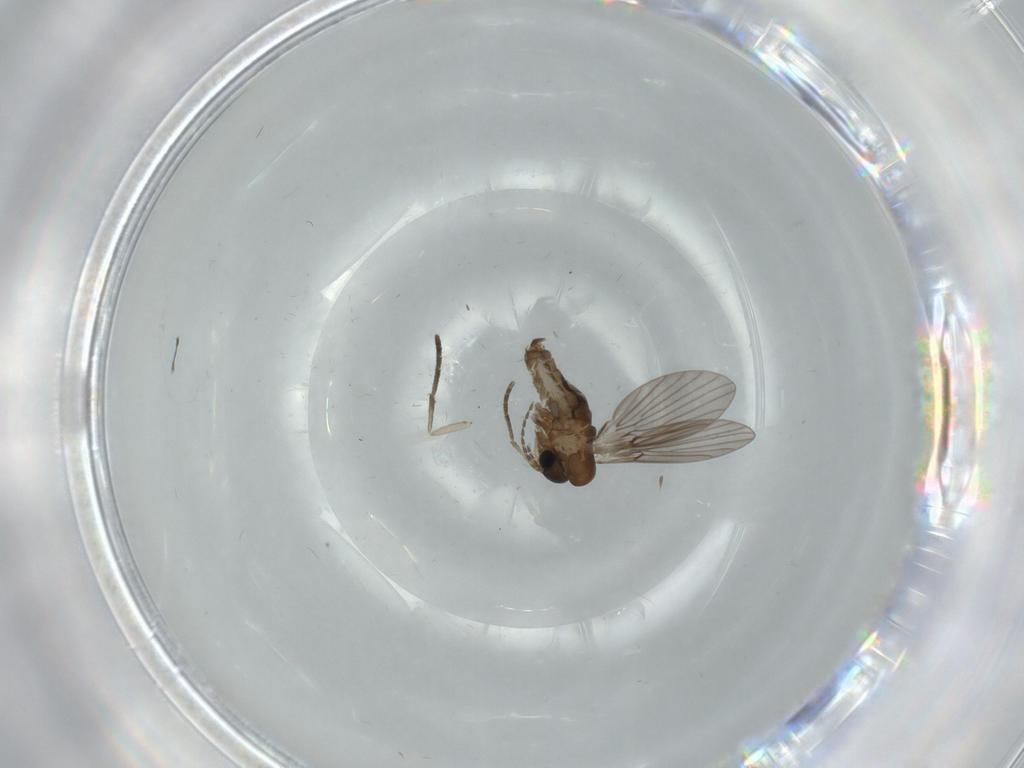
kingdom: Animalia
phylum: Arthropoda
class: Insecta
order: Diptera
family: Psychodidae
